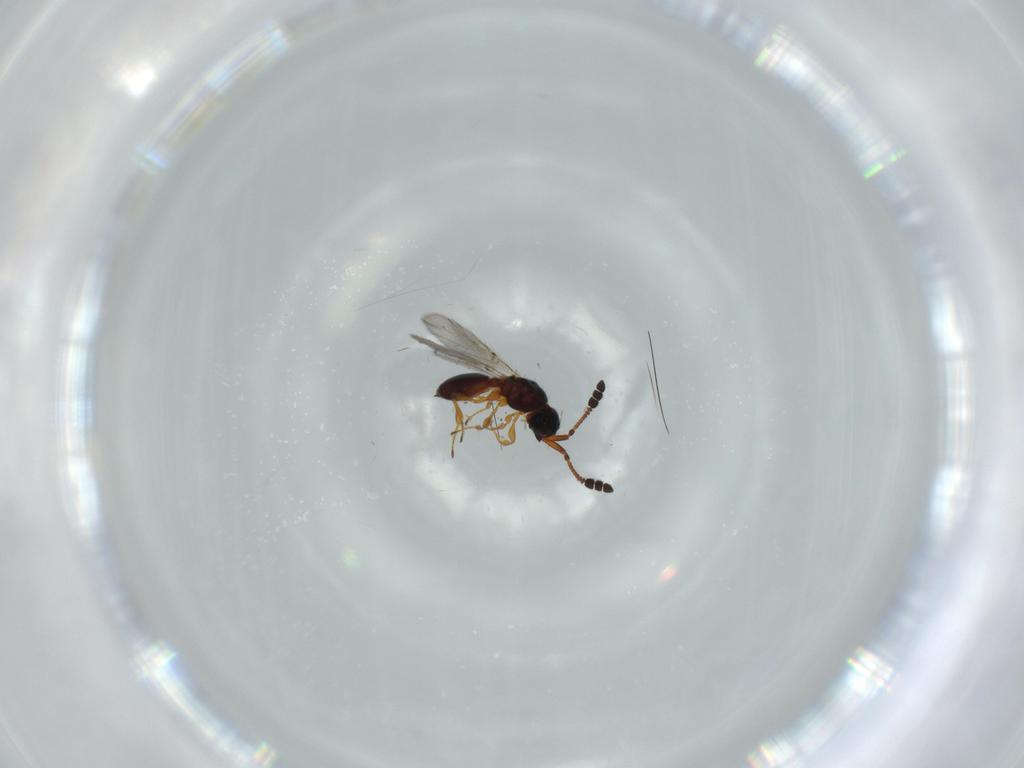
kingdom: Animalia
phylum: Arthropoda
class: Insecta
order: Hymenoptera
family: Diapriidae
